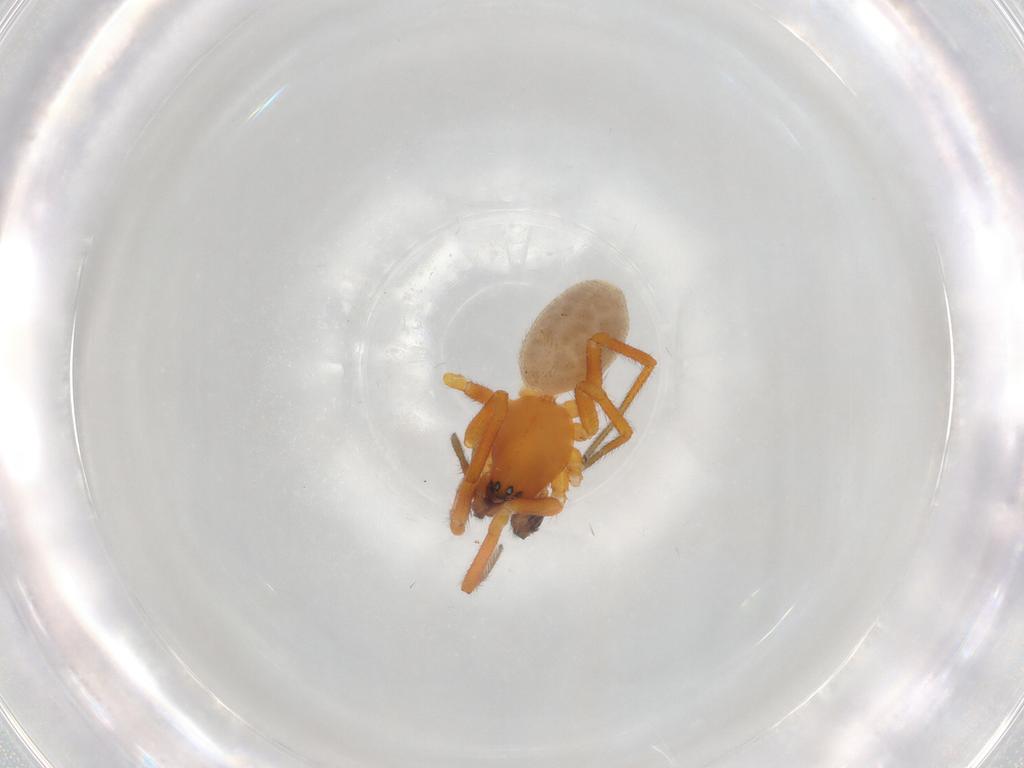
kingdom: Animalia
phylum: Arthropoda
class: Arachnida
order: Araneae
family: Linyphiidae
